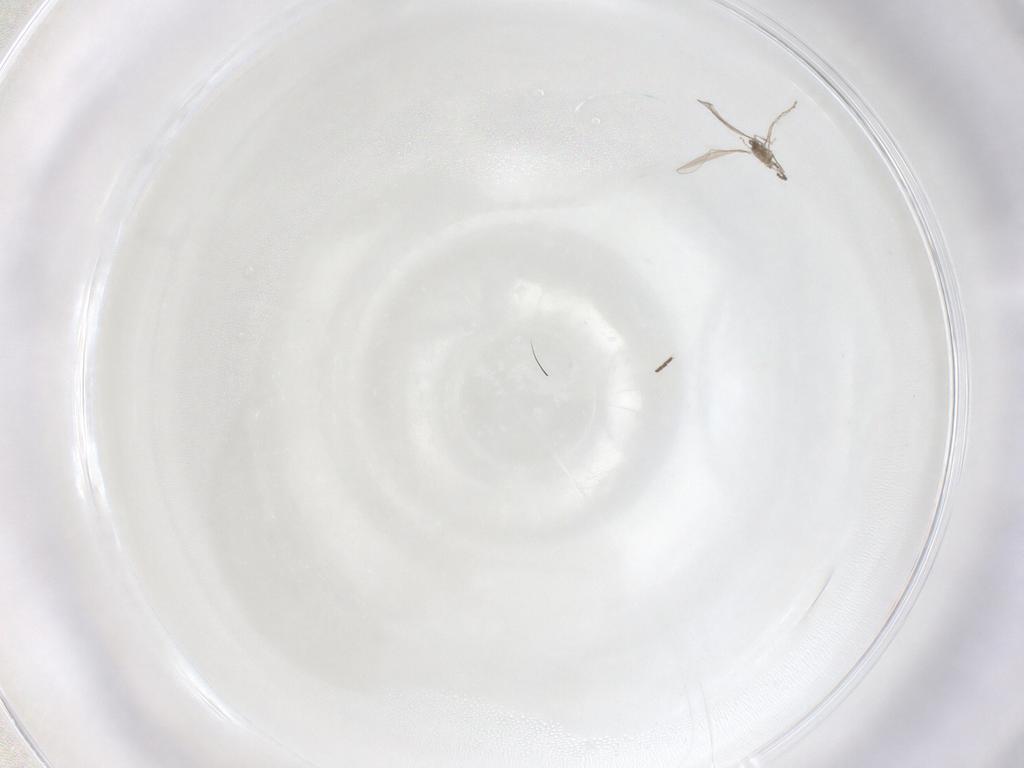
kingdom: Animalia
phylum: Arthropoda
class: Insecta
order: Diptera
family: Cecidomyiidae
